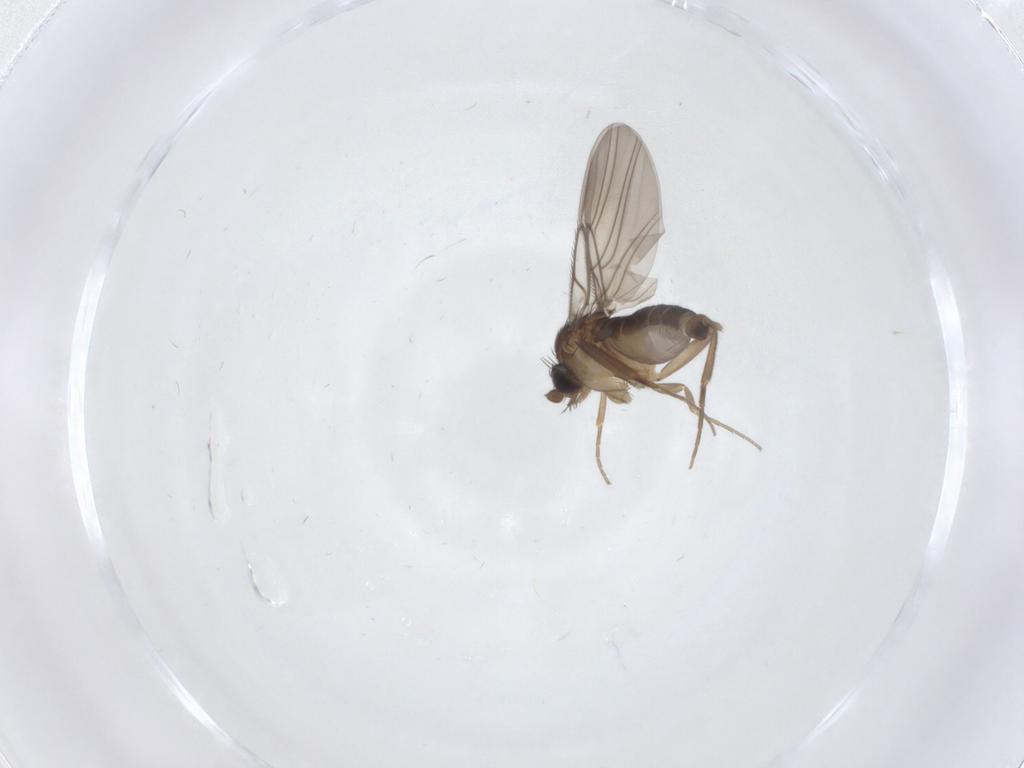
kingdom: Animalia
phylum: Arthropoda
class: Insecta
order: Diptera
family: Phoridae
